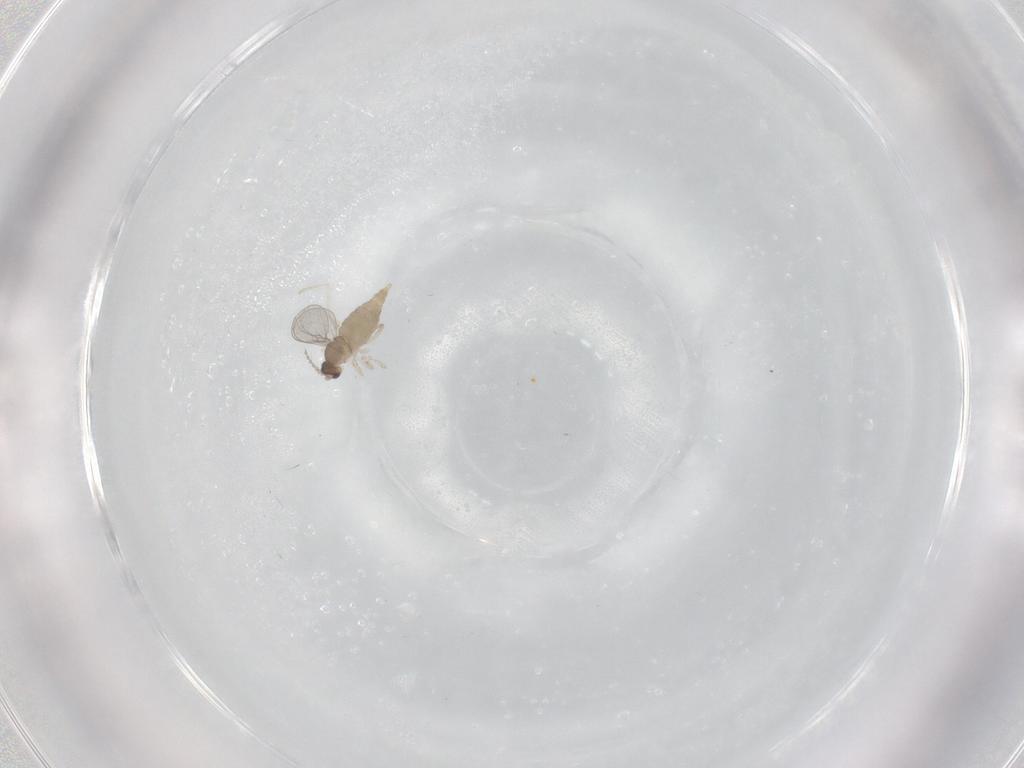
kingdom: Animalia
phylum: Arthropoda
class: Insecta
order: Diptera
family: Cecidomyiidae
